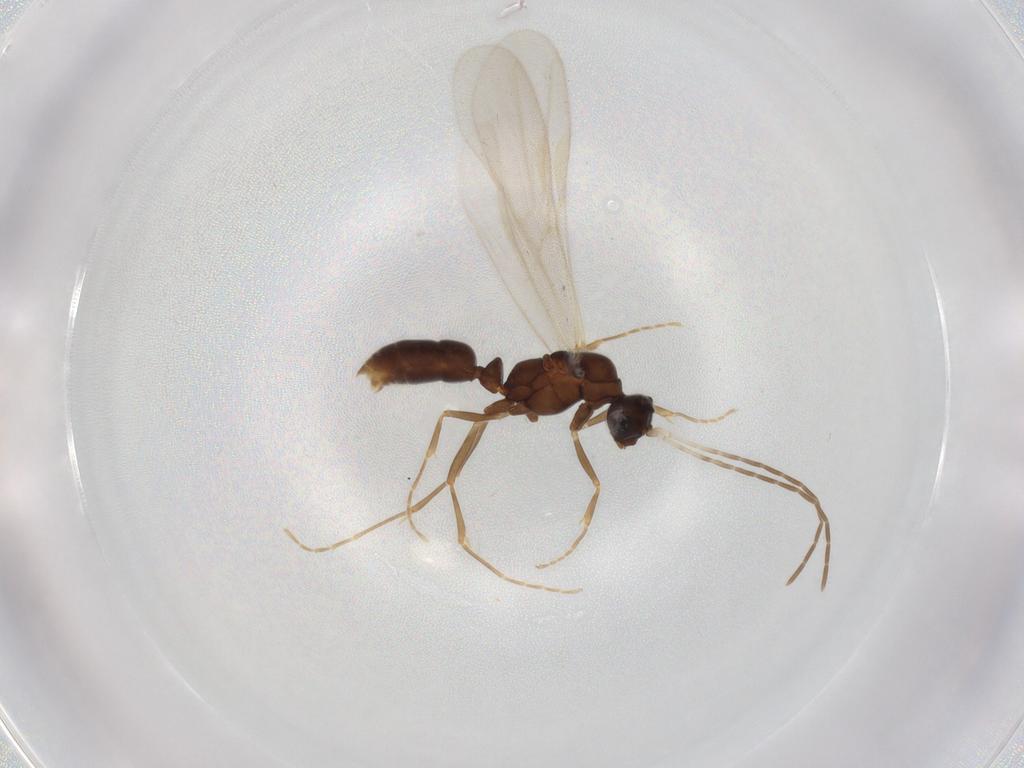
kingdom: Animalia
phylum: Arthropoda
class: Insecta
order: Hymenoptera
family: Formicidae
